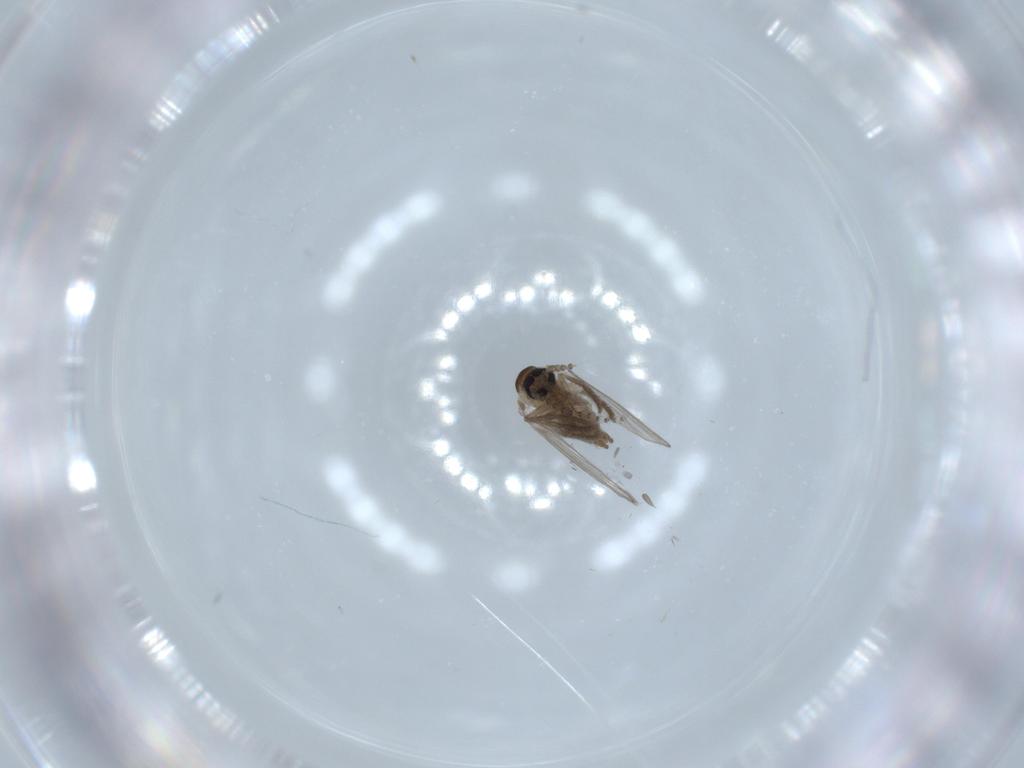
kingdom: Animalia
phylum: Arthropoda
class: Insecta
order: Diptera
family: Psychodidae
